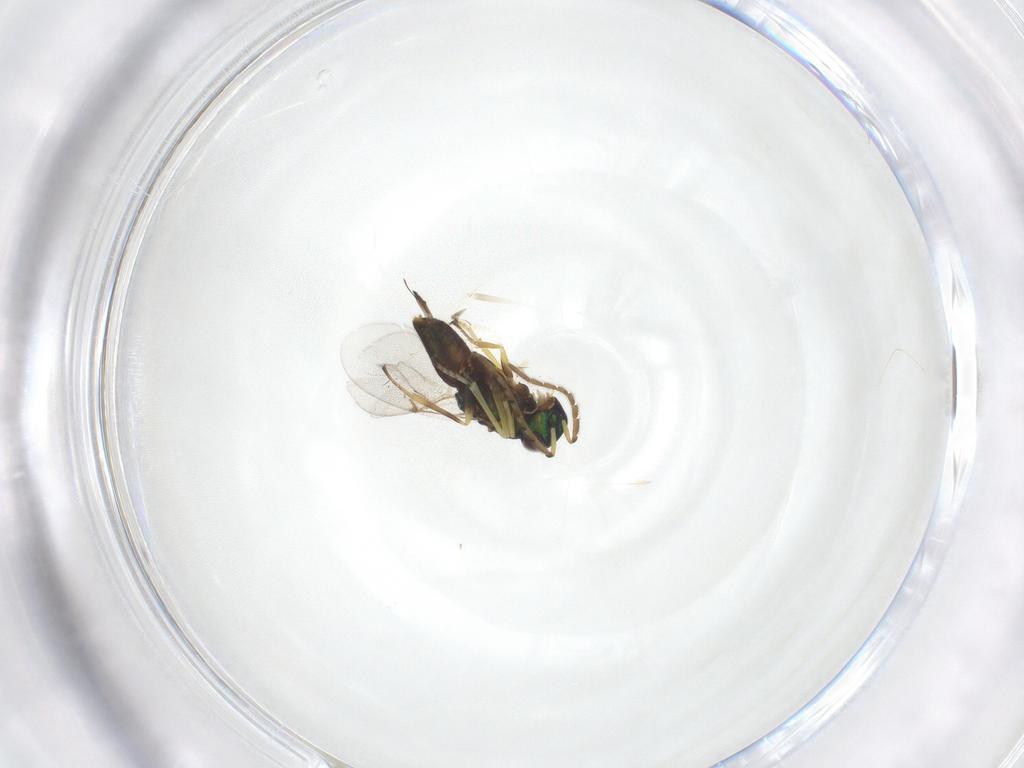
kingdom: Animalia
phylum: Arthropoda
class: Insecta
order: Hymenoptera
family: Encyrtidae
